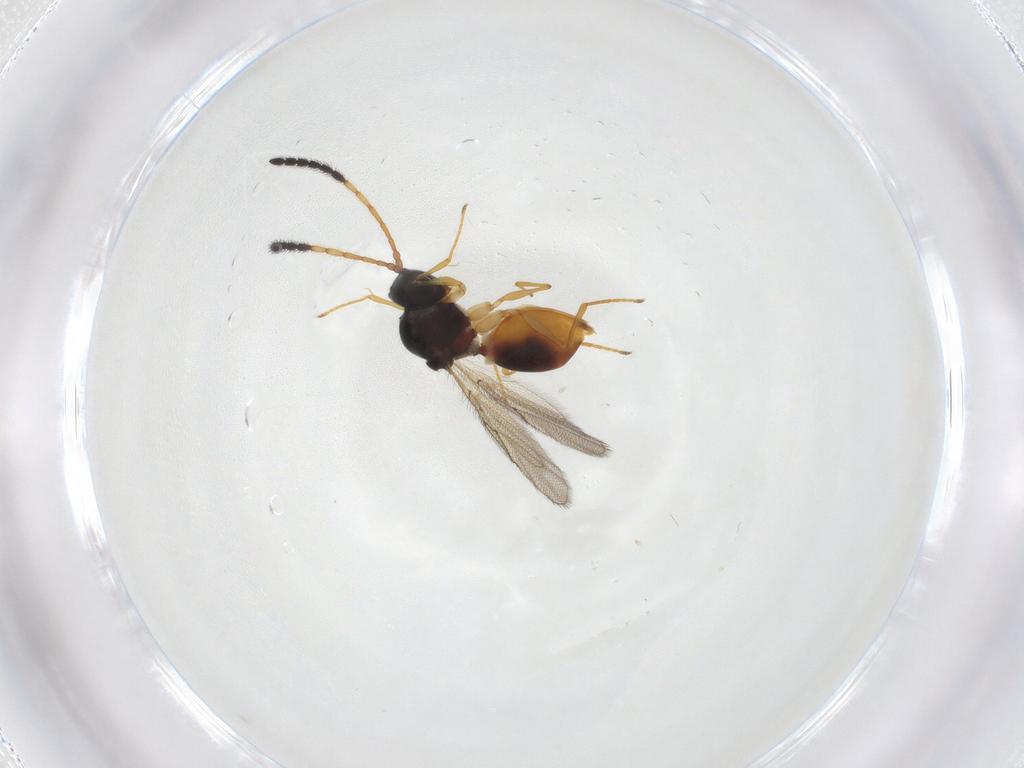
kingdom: Animalia
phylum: Arthropoda
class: Insecta
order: Hymenoptera
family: Figitidae
